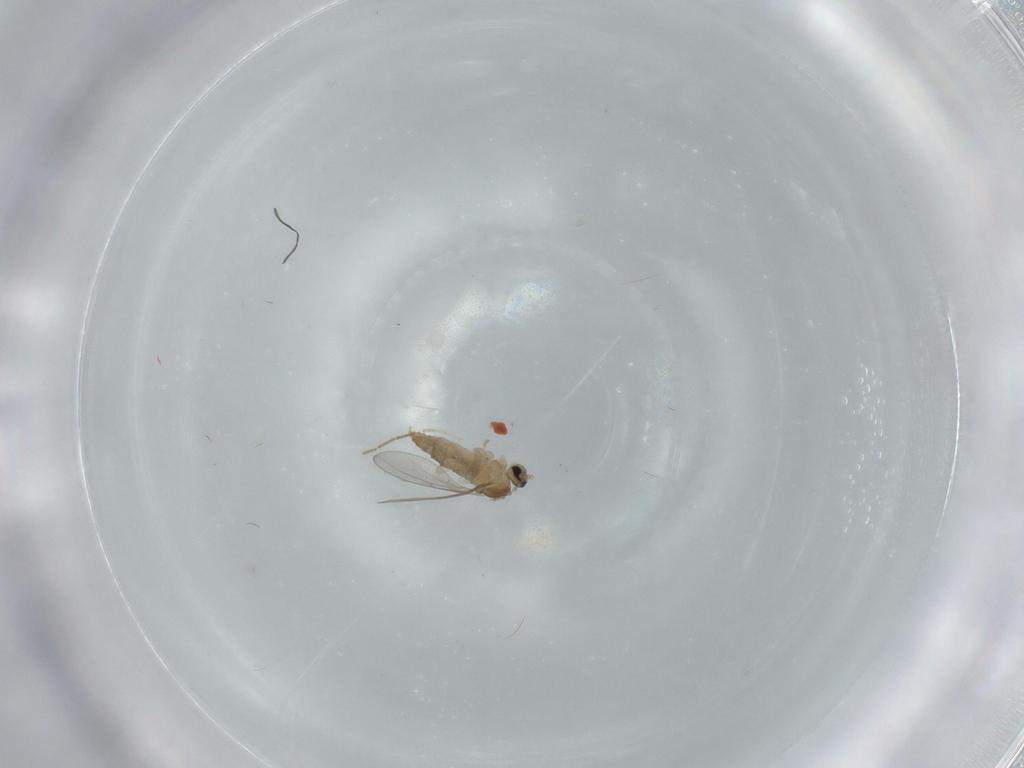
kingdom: Animalia
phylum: Arthropoda
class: Insecta
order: Diptera
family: Cecidomyiidae
